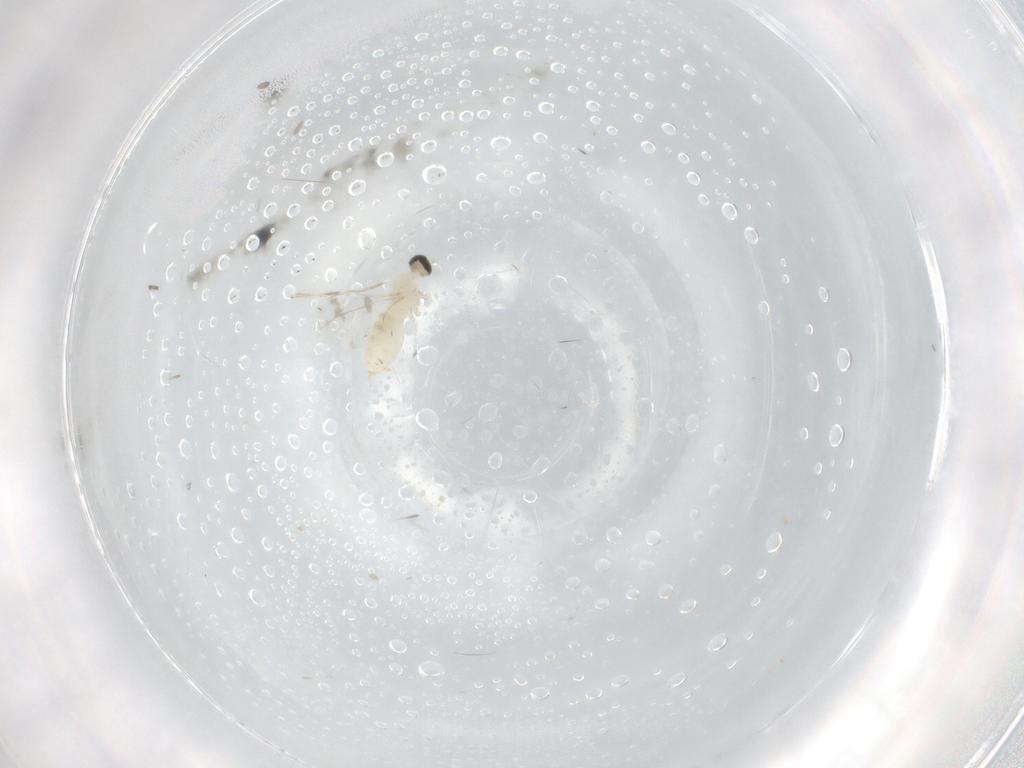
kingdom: Animalia
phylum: Arthropoda
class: Insecta
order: Diptera
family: Cecidomyiidae
